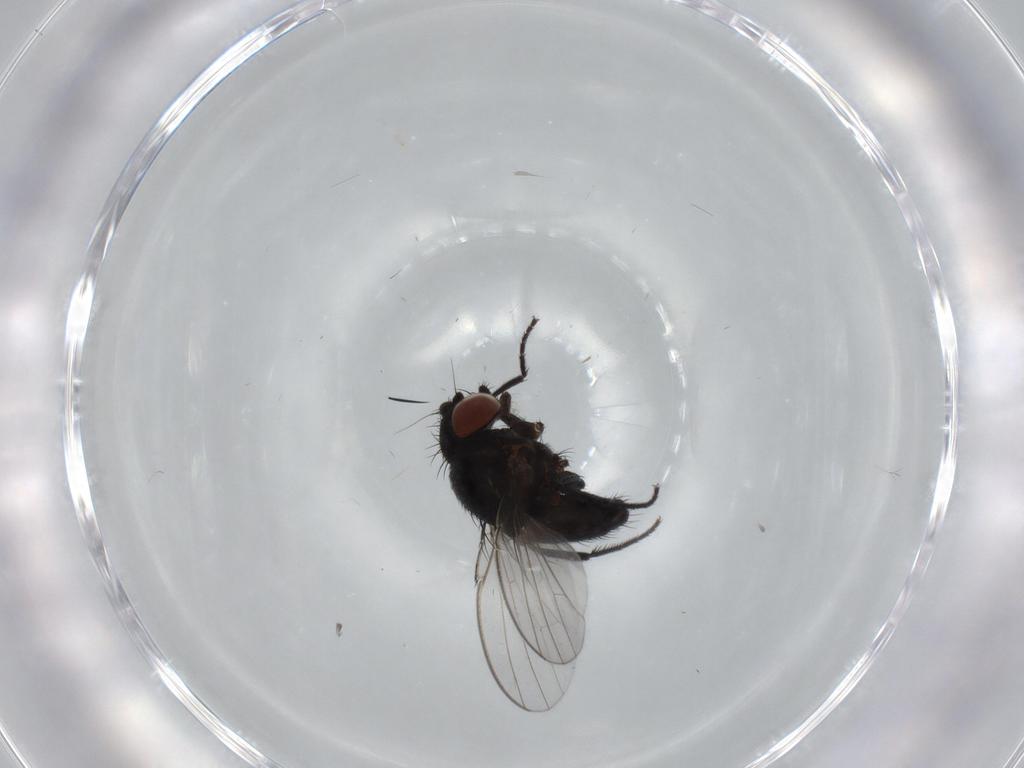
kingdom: Animalia
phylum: Arthropoda
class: Insecta
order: Diptera
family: Milichiidae
